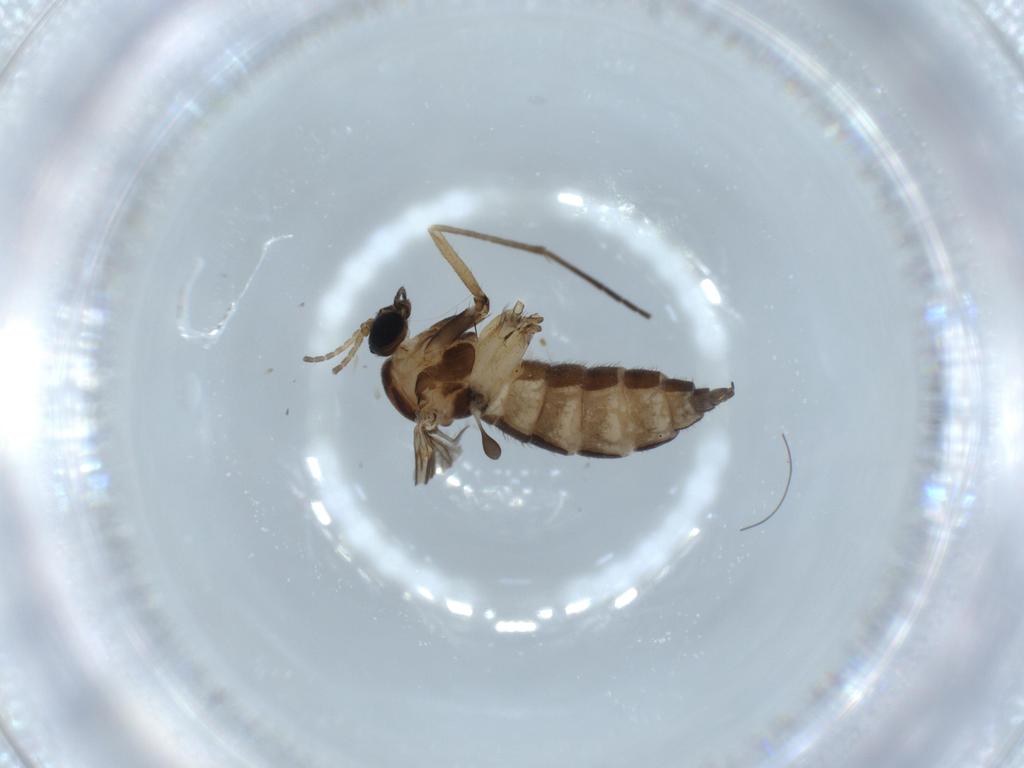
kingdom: Animalia
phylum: Arthropoda
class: Insecta
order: Diptera
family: Sciaridae
